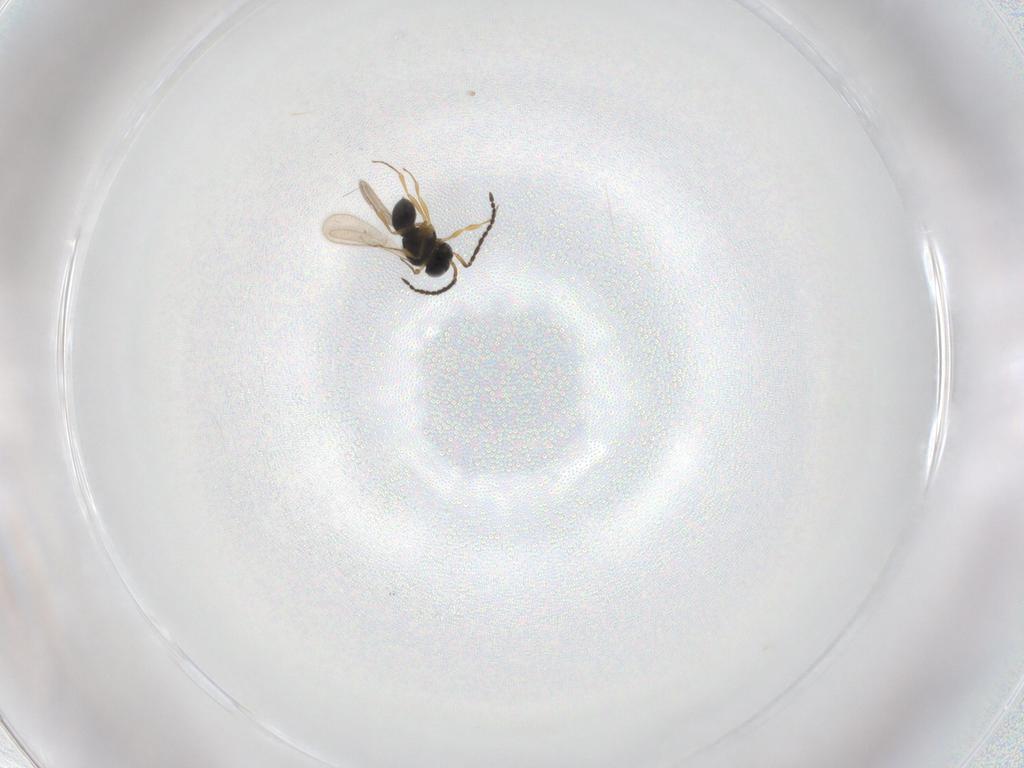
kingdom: Animalia
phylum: Arthropoda
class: Insecta
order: Hymenoptera
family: Scelionidae
